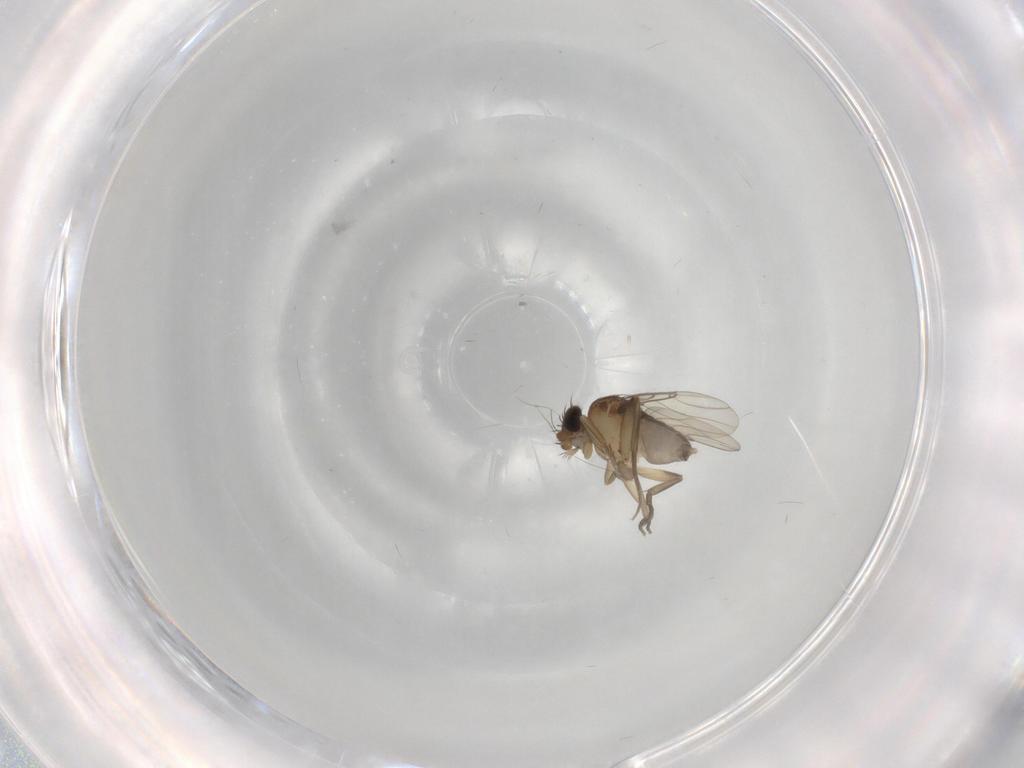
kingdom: Animalia
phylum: Arthropoda
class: Insecta
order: Diptera
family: Phoridae
